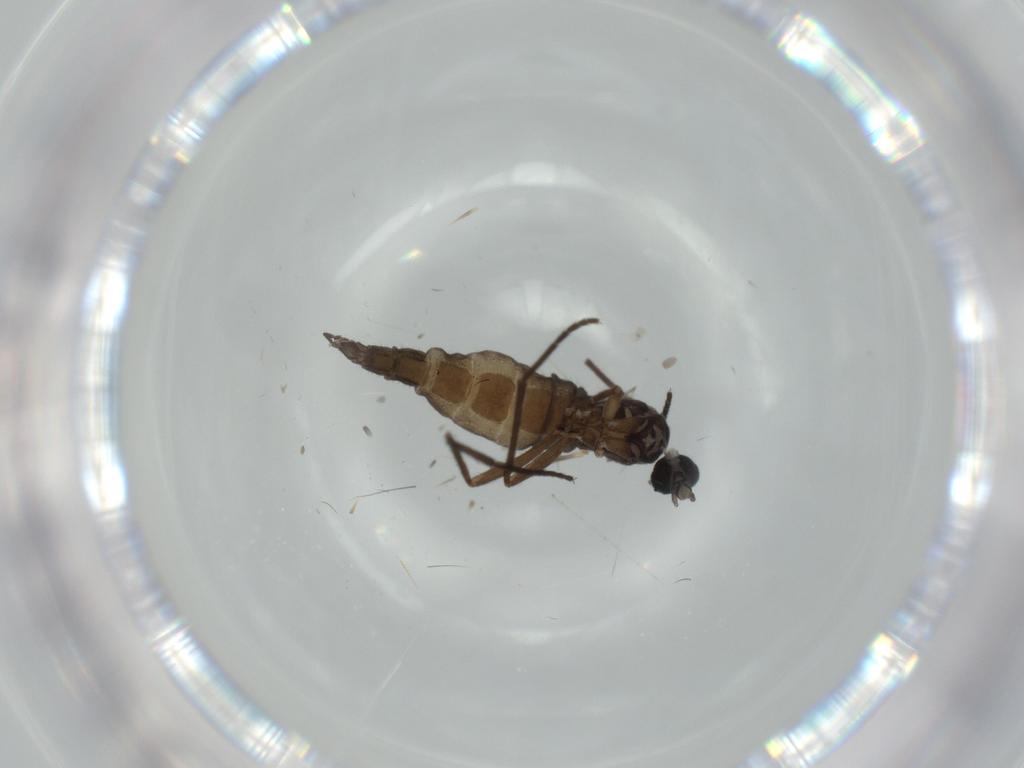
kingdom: Animalia
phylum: Arthropoda
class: Insecta
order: Diptera
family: Sciaridae
